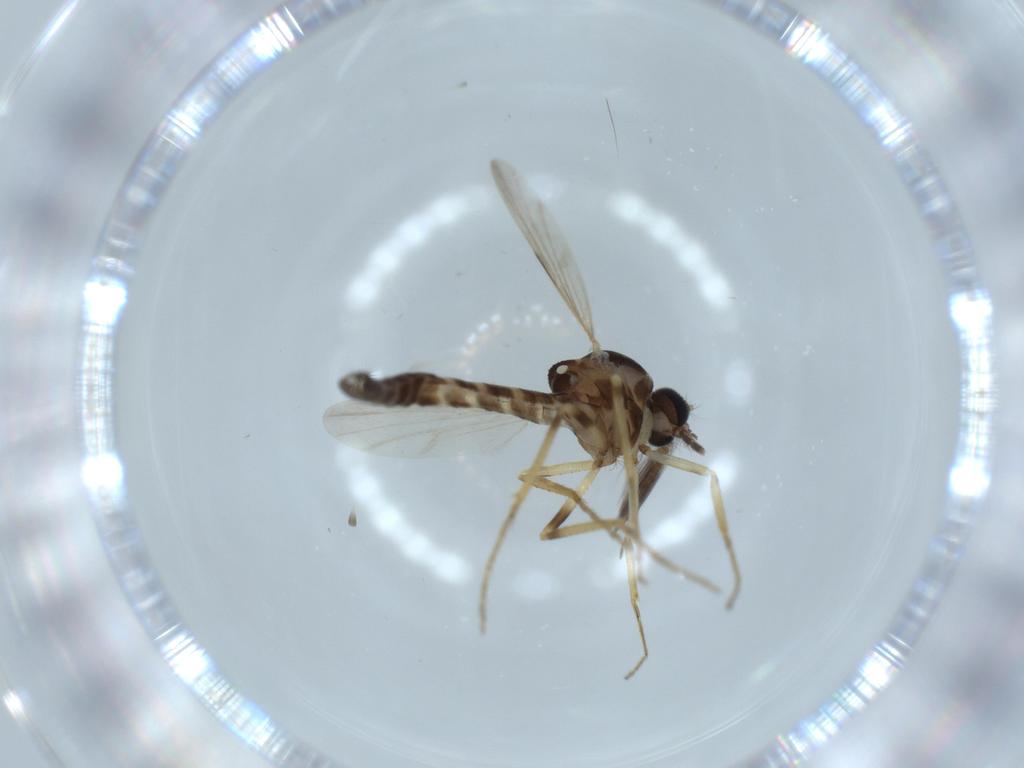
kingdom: Animalia
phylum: Arthropoda
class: Insecta
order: Diptera
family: Ceratopogonidae
